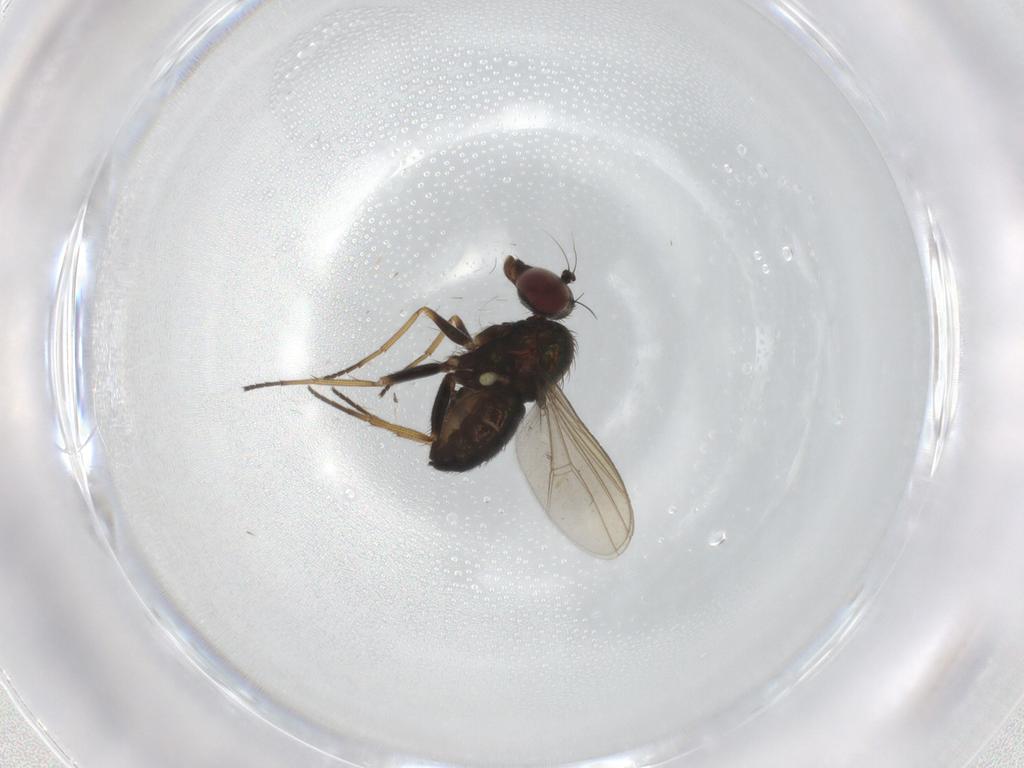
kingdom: Animalia
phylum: Arthropoda
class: Insecta
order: Diptera
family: Dolichopodidae
